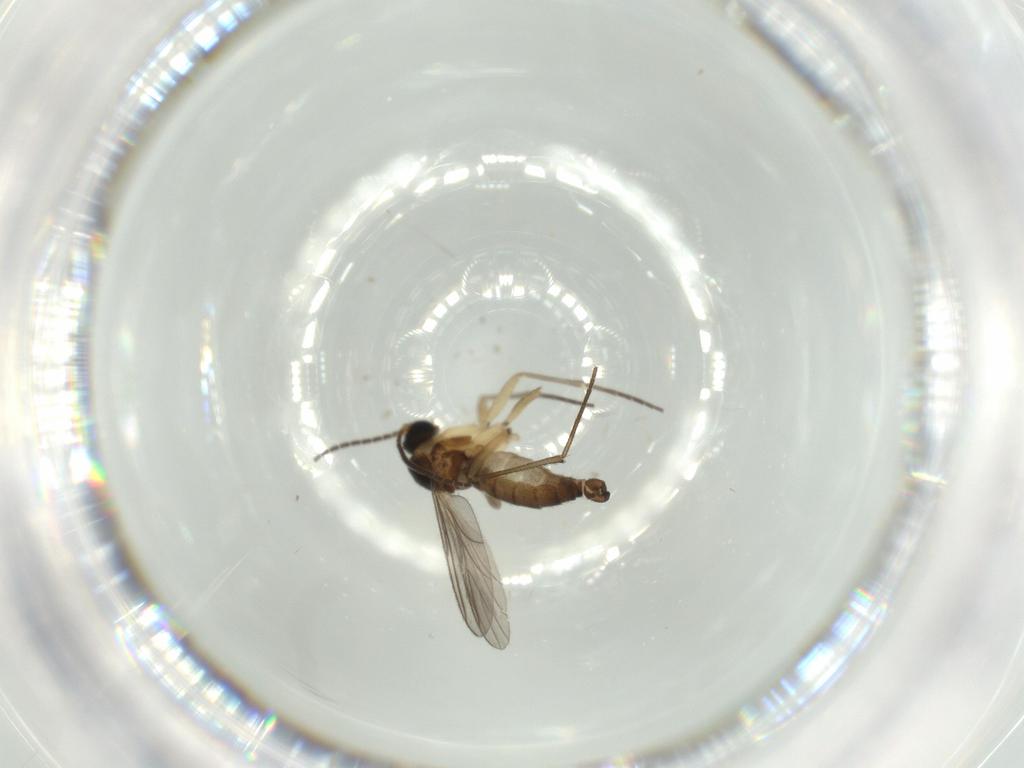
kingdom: Animalia
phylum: Arthropoda
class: Insecta
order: Diptera
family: Sciaridae
